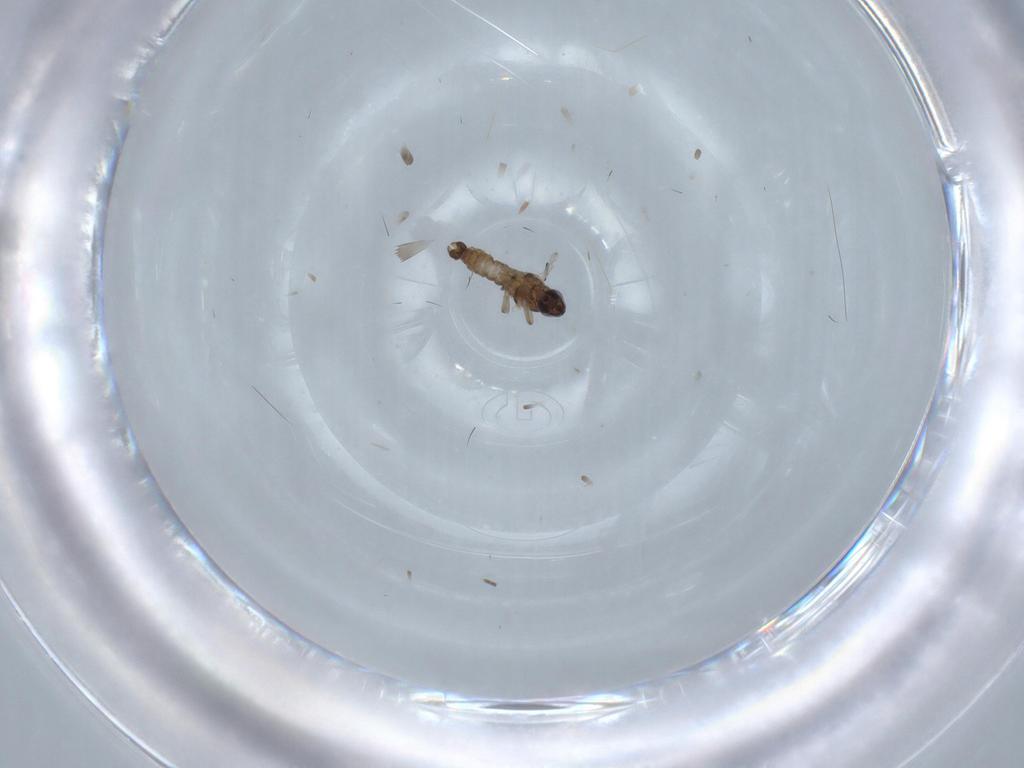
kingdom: Animalia
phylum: Arthropoda
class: Insecta
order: Diptera
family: Cecidomyiidae
